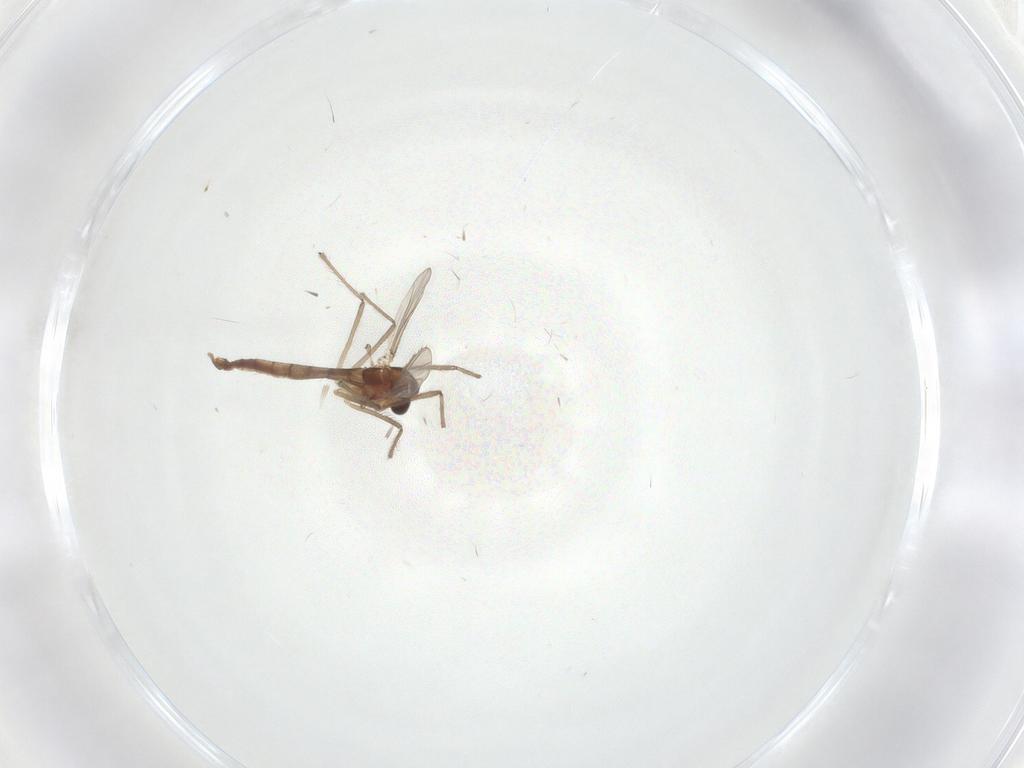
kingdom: Animalia
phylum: Arthropoda
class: Insecta
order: Diptera
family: Chironomidae
